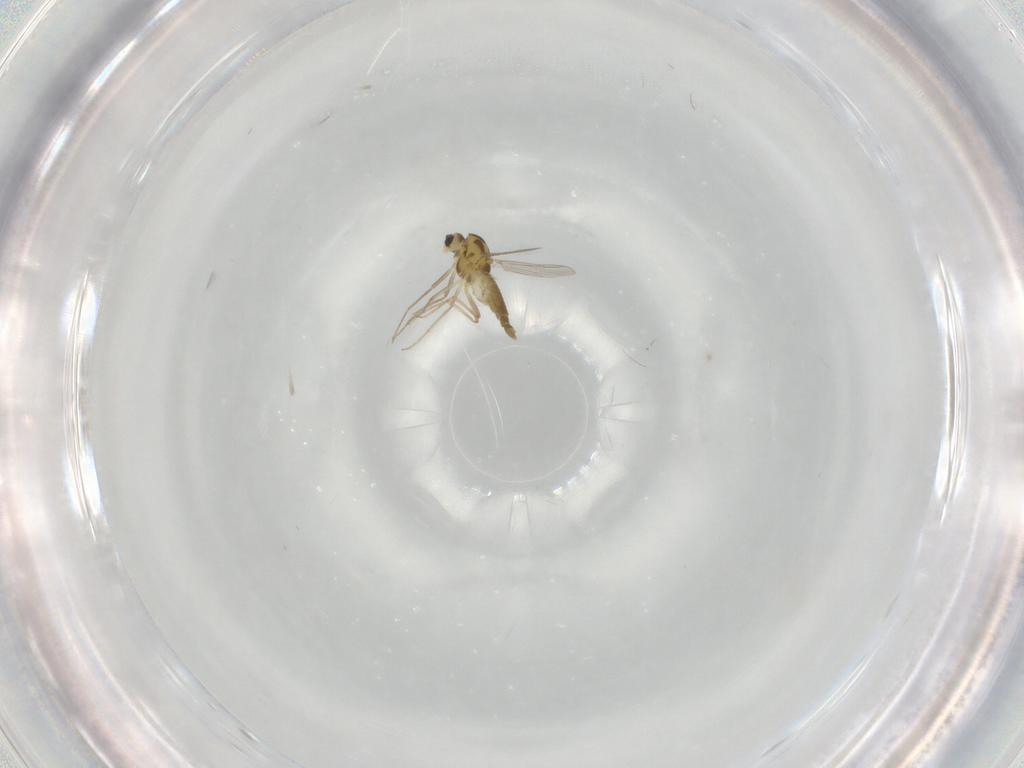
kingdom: Animalia
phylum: Arthropoda
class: Insecta
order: Diptera
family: Chironomidae
